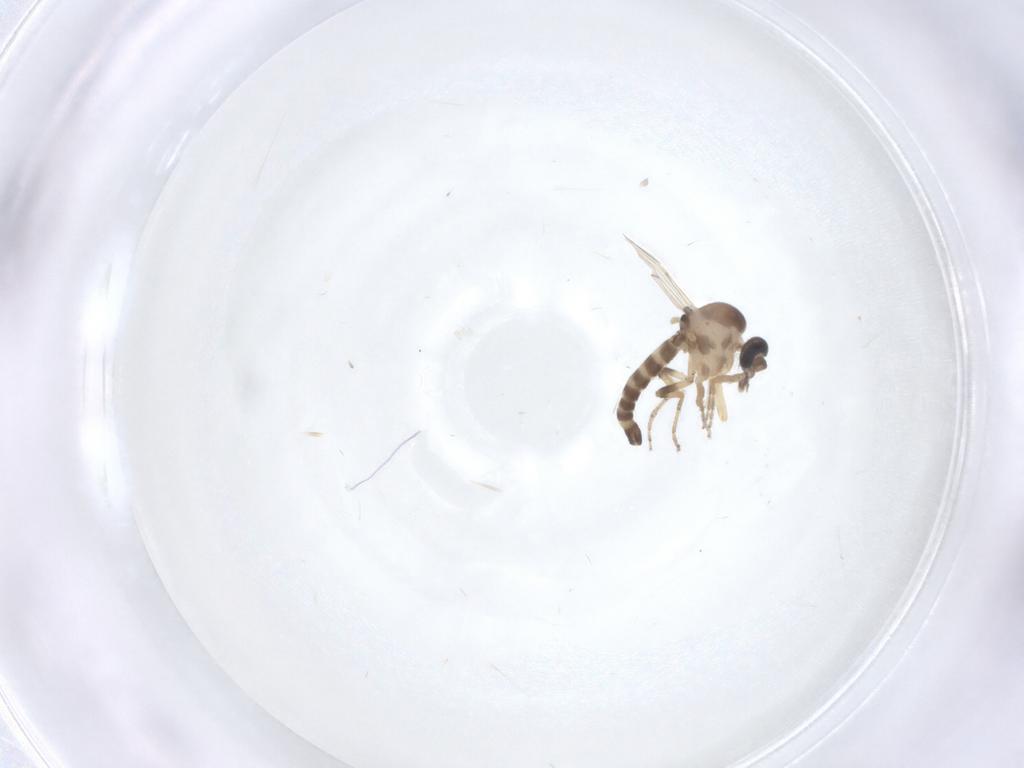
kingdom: Animalia
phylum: Arthropoda
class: Insecta
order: Diptera
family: Ceratopogonidae
